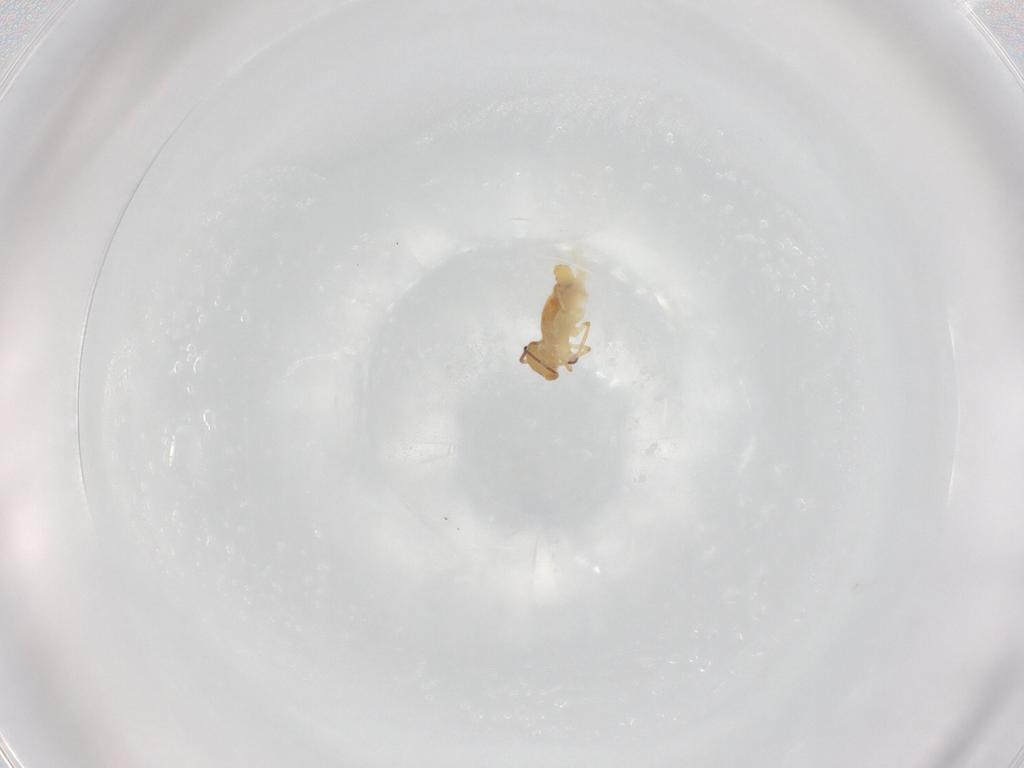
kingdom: Animalia
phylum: Arthropoda
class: Collembola
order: Symphypleona
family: Bourletiellidae
